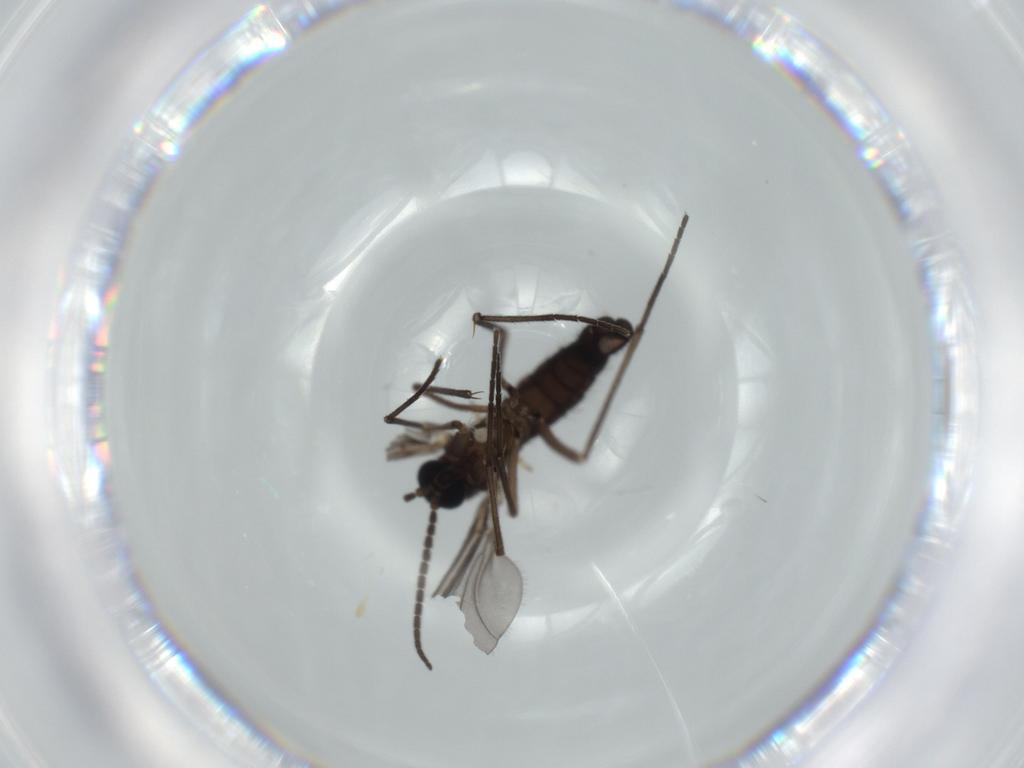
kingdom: Animalia
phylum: Arthropoda
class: Insecta
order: Diptera
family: Sciaridae
